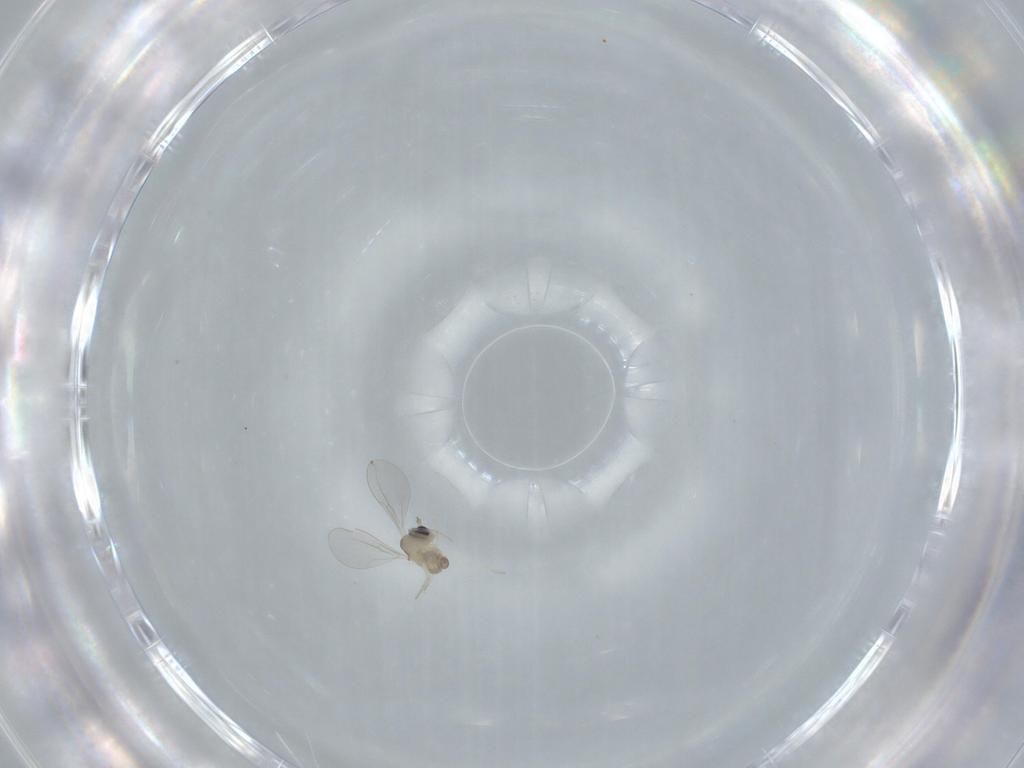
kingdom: Animalia
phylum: Arthropoda
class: Insecta
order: Diptera
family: Cecidomyiidae
